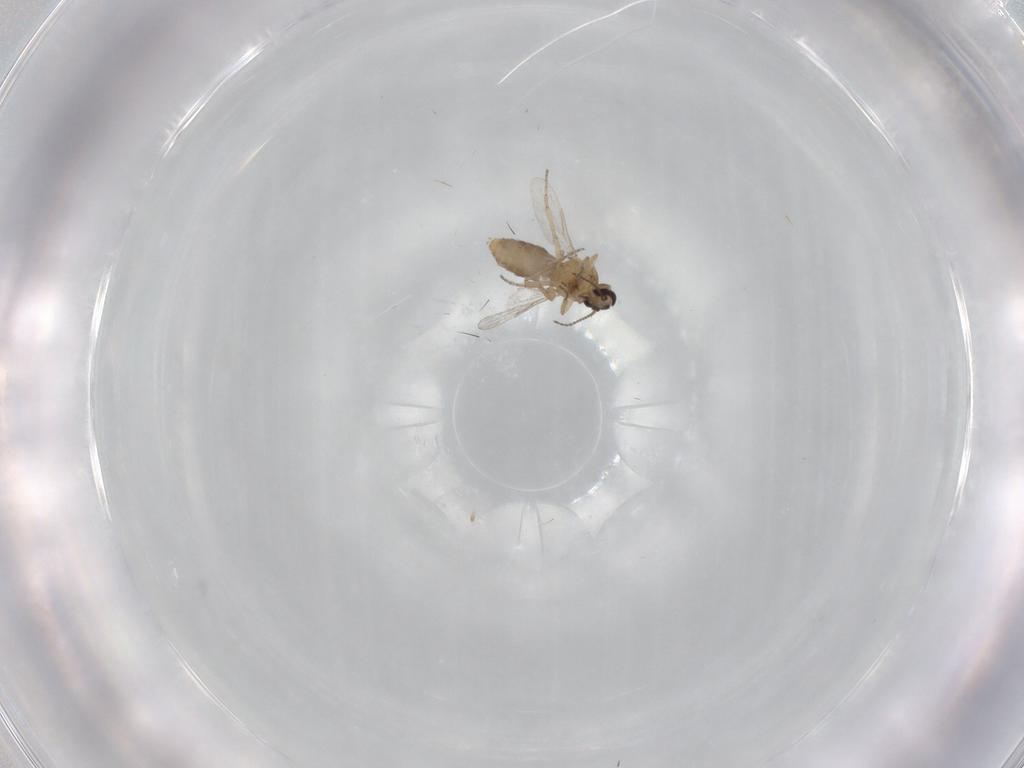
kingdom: Animalia
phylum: Arthropoda
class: Insecta
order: Diptera
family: Ceratopogonidae
